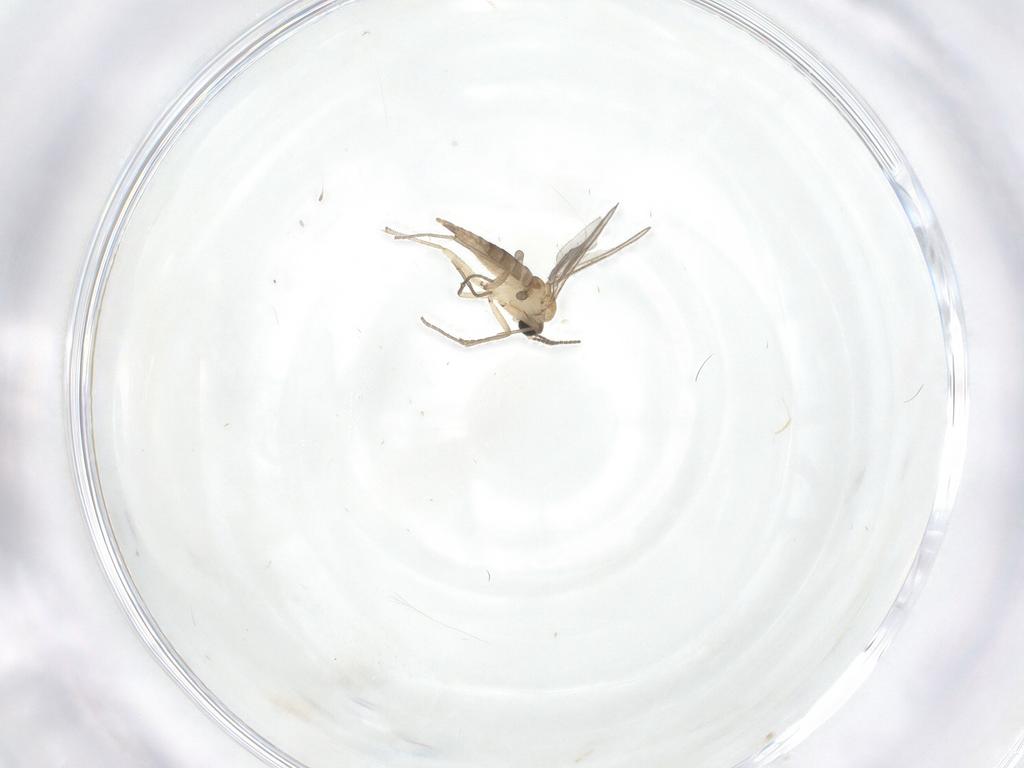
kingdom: Animalia
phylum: Arthropoda
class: Insecta
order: Diptera
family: Sciaridae
